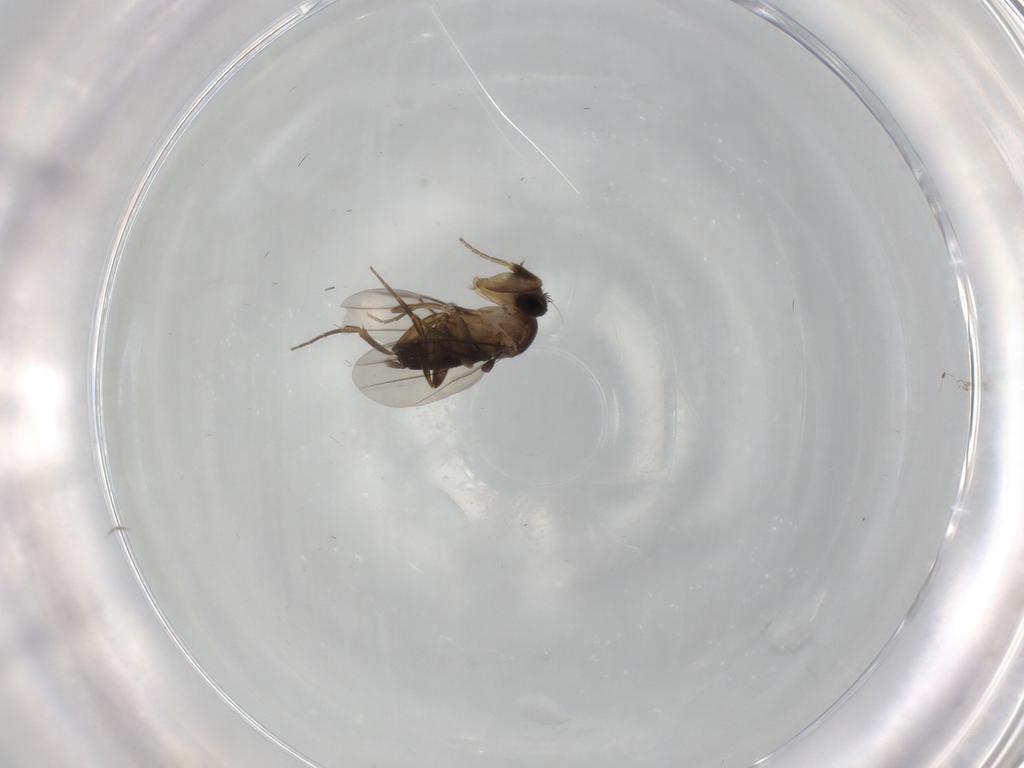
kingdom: Animalia
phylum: Arthropoda
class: Insecta
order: Diptera
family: Phoridae
